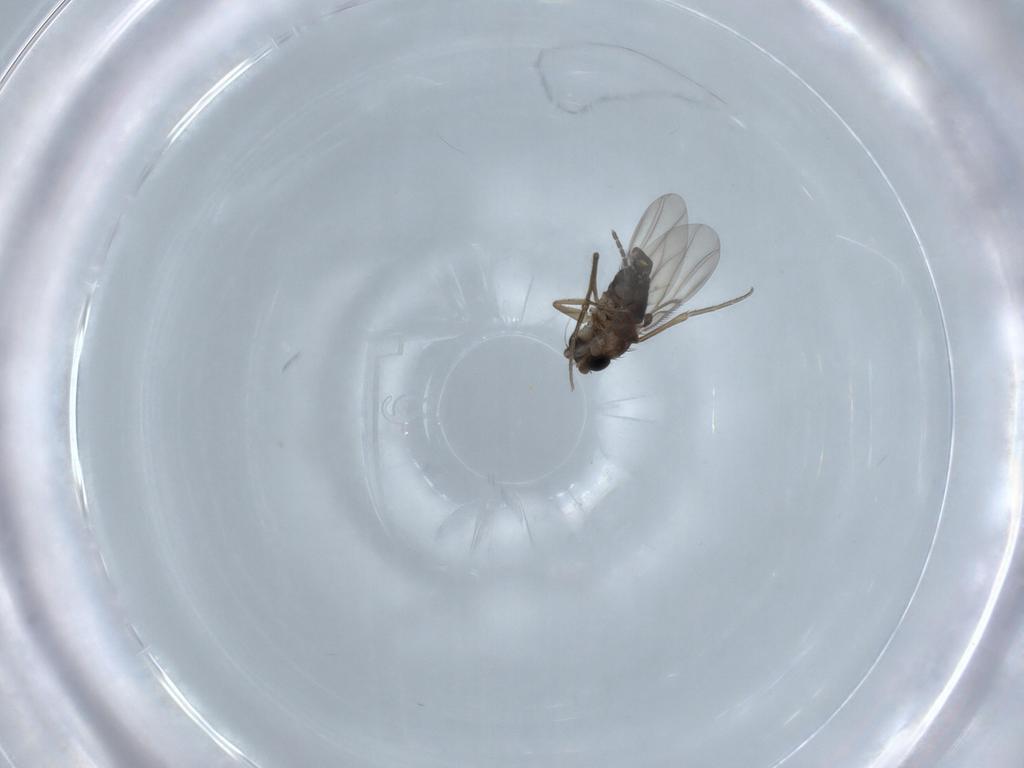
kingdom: Animalia
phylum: Arthropoda
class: Insecta
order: Diptera
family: Phoridae
